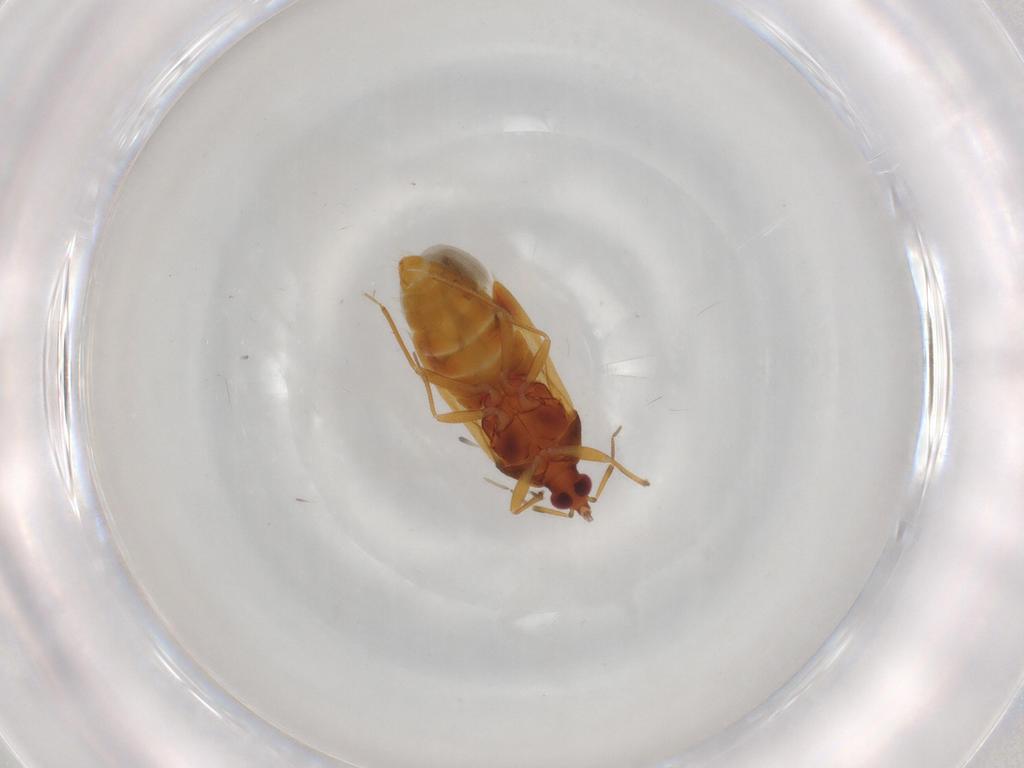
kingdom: Animalia
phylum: Arthropoda
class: Insecta
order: Hemiptera
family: Anthocoridae
